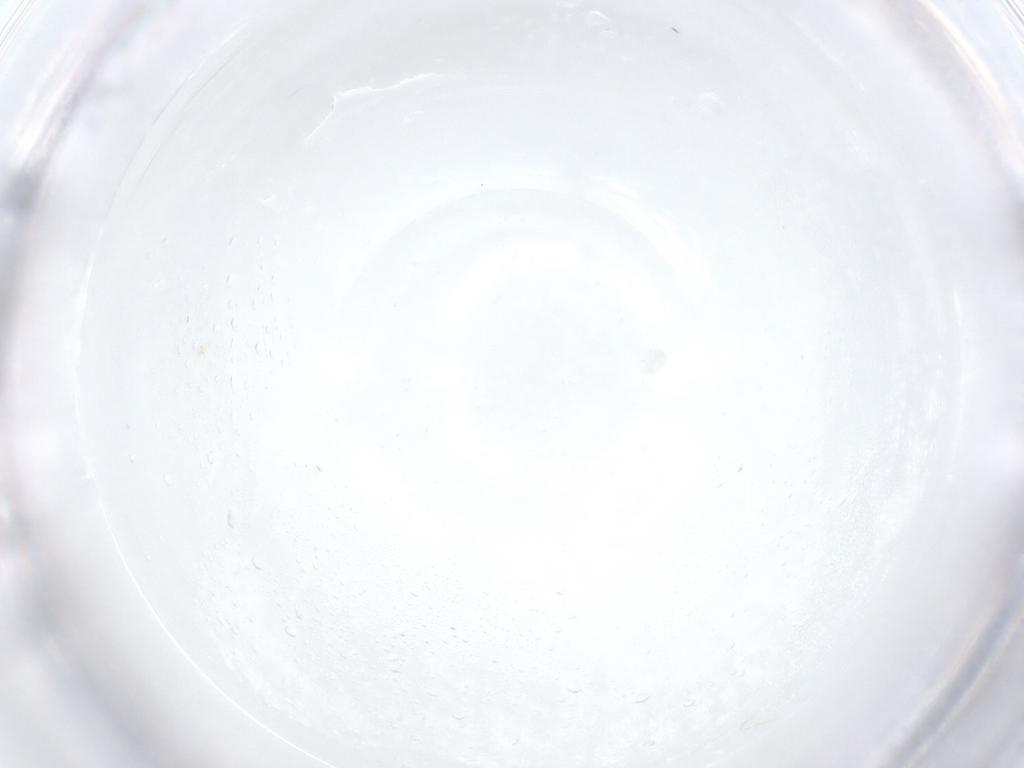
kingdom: Animalia
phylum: Arthropoda
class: Insecta
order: Hymenoptera
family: Mymaridae
